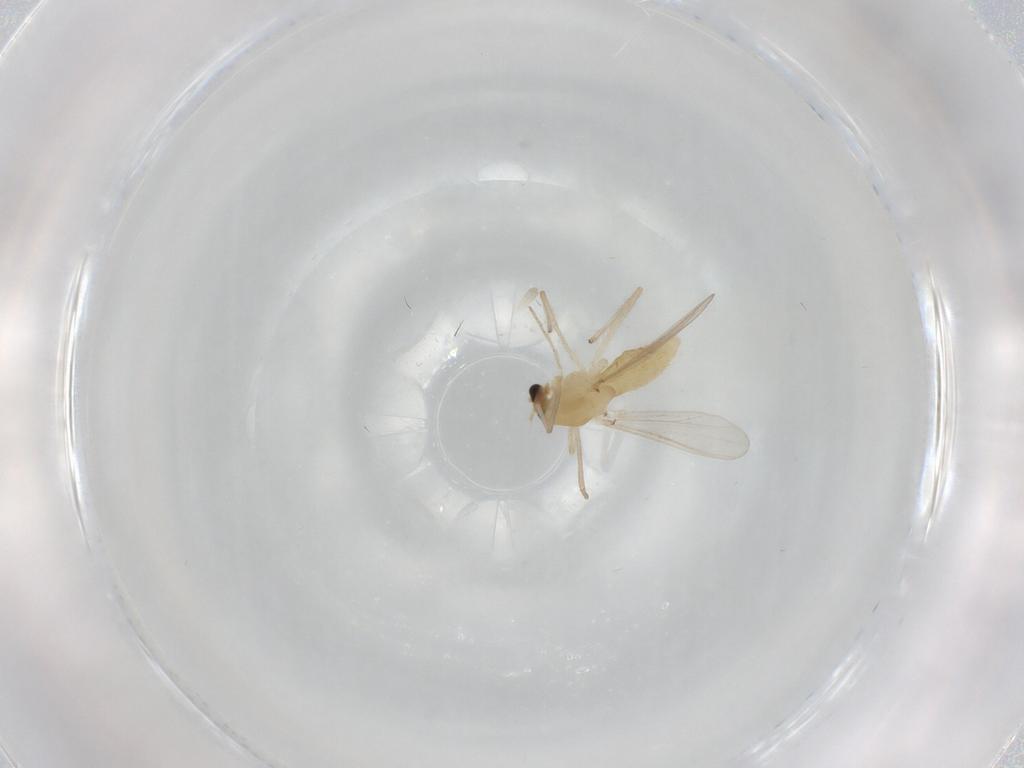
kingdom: Animalia
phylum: Arthropoda
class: Insecta
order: Diptera
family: Chironomidae
